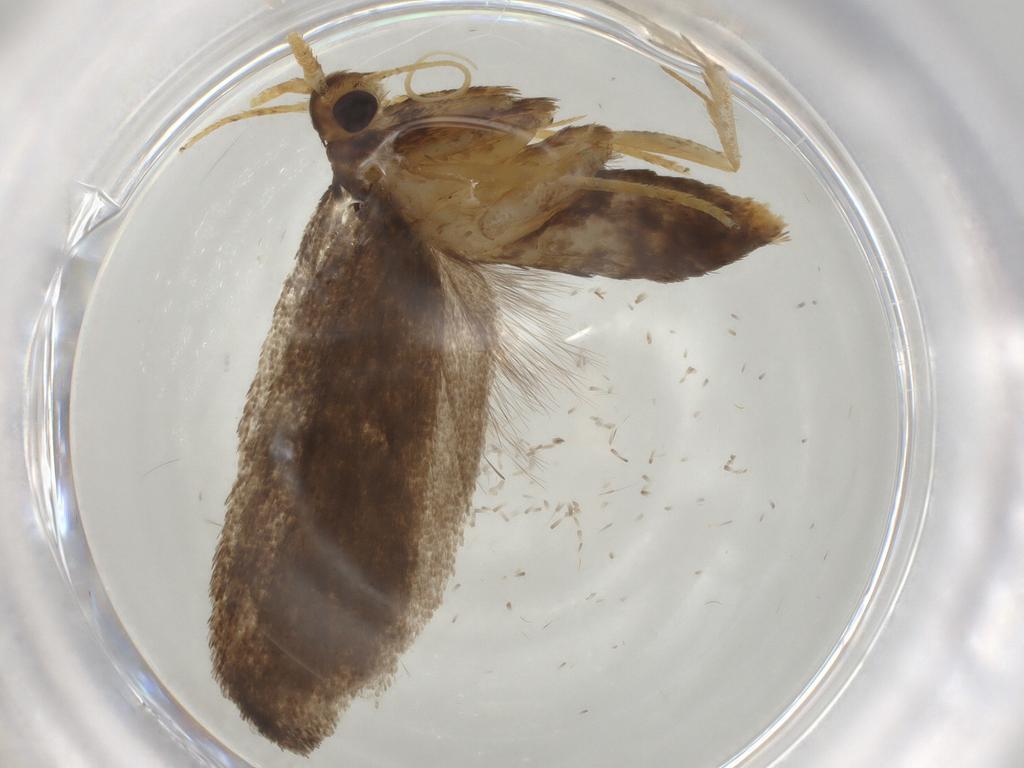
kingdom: Animalia
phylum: Arthropoda
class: Insecta
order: Lepidoptera
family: Lecithoceridae
